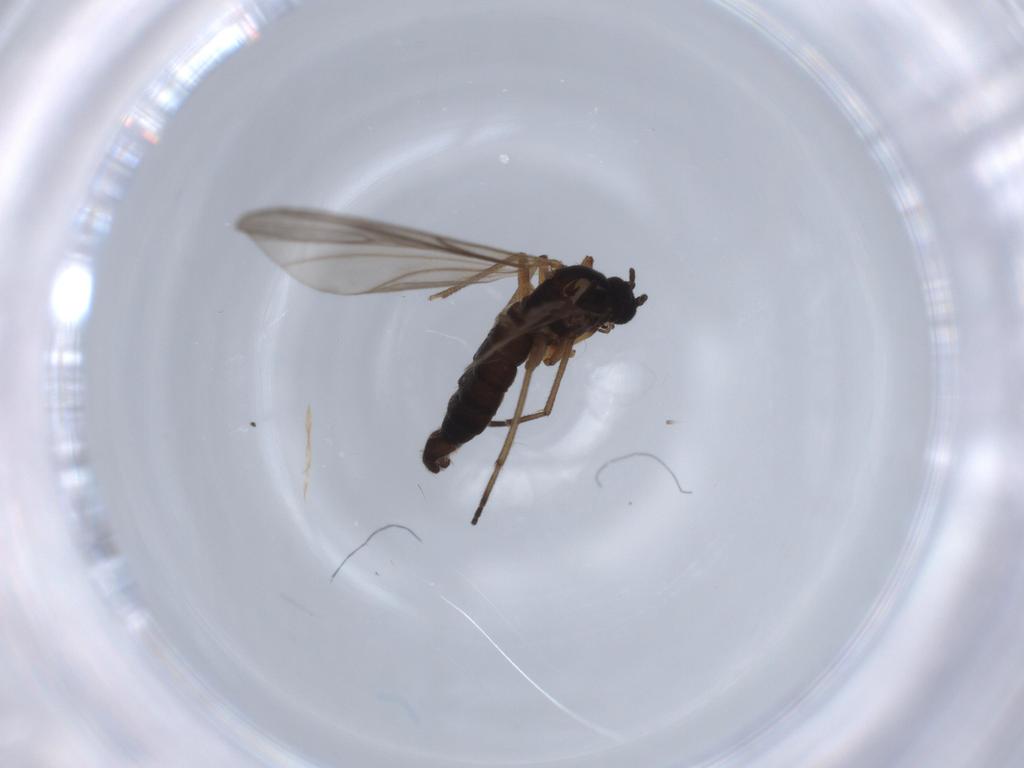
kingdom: Animalia
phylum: Arthropoda
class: Insecta
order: Diptera
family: Sciaridae
